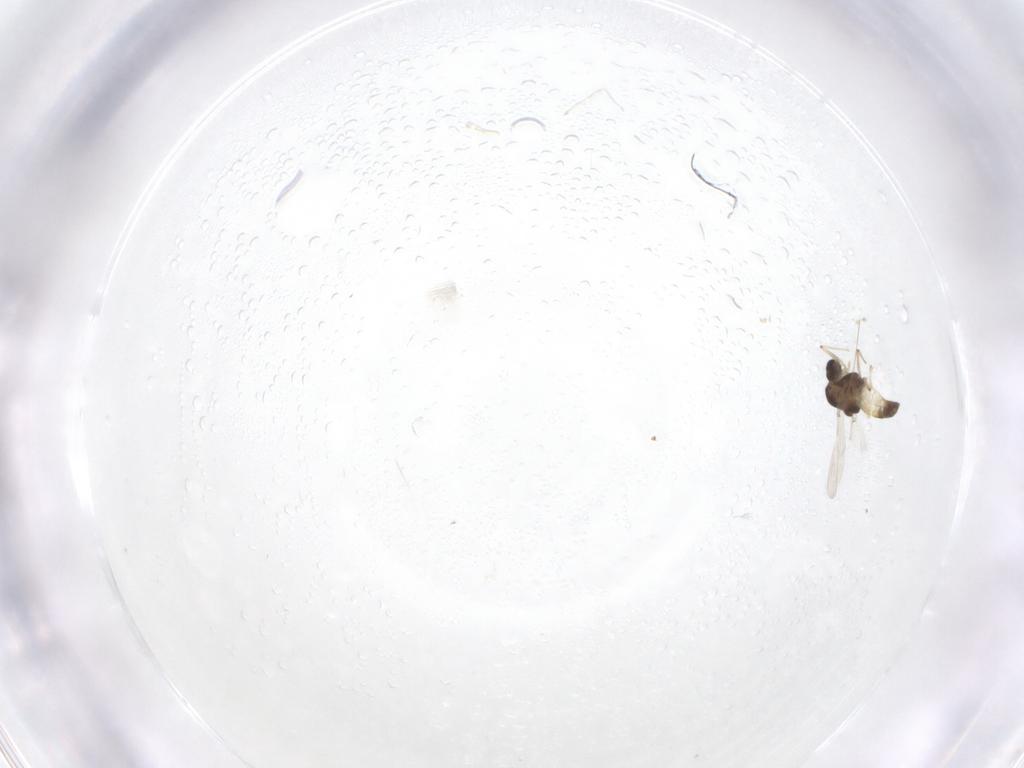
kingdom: Animalia
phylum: Arthropoda
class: Insecta
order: Diptera
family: Chironomidae
